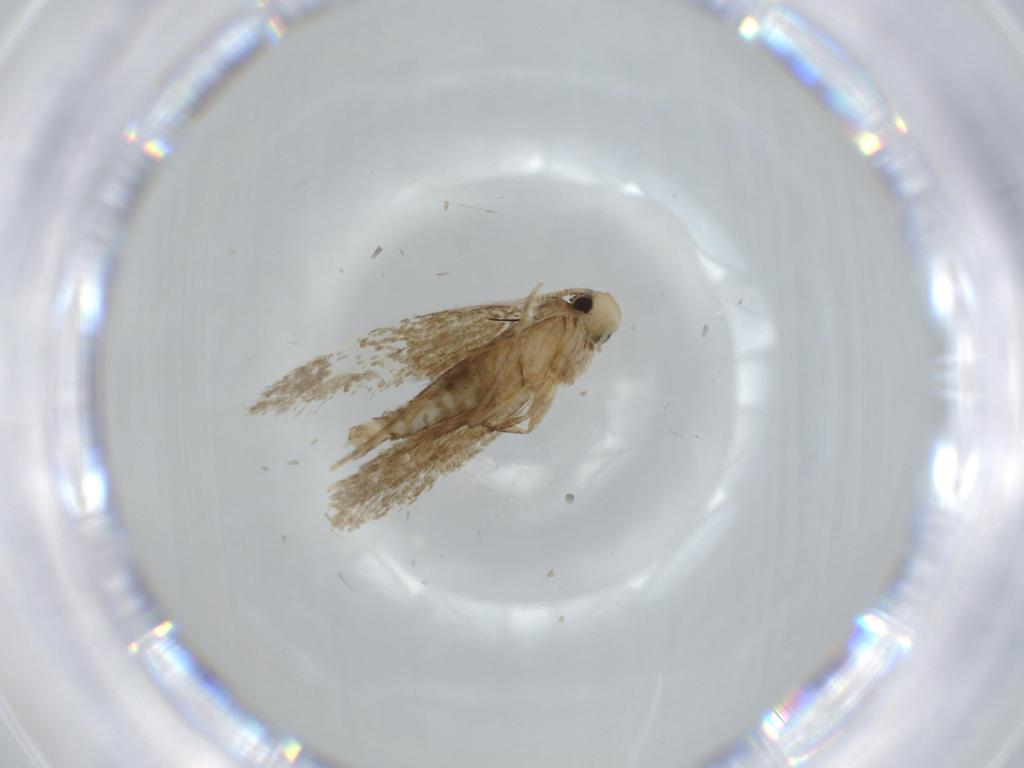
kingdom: Animalia
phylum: Arthropoda
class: Insecta
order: Lepidoptera
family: Tineidae
